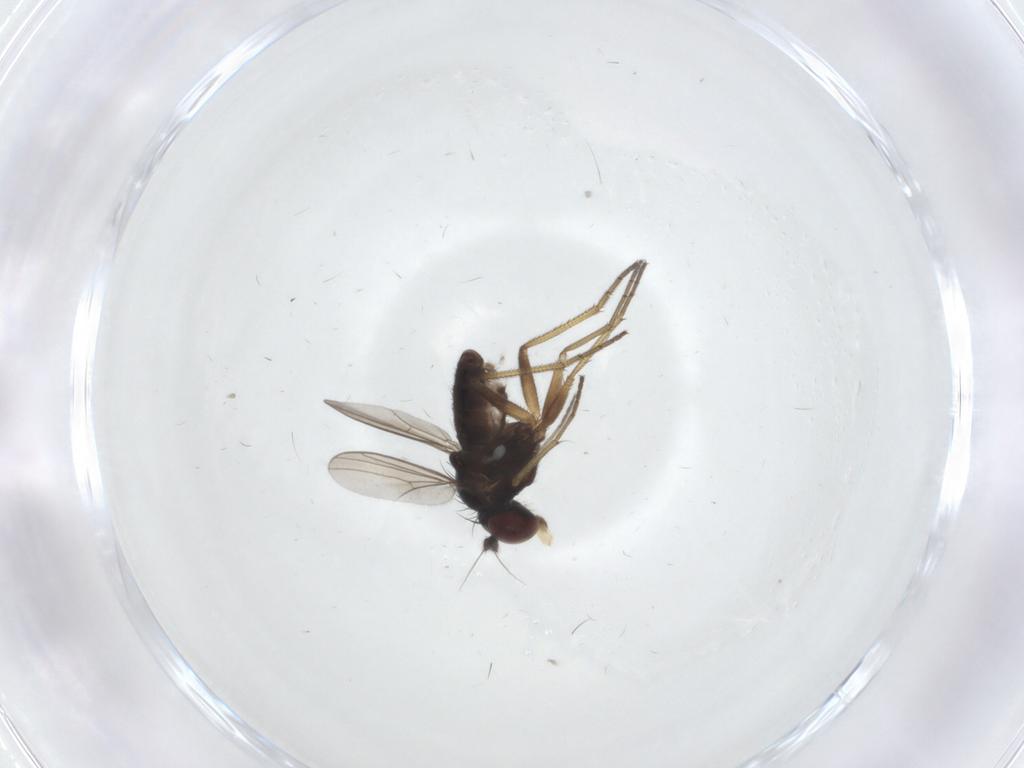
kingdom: Animalia
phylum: Arthropoda
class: Insecta
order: Diptera
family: Dolichopodidae
